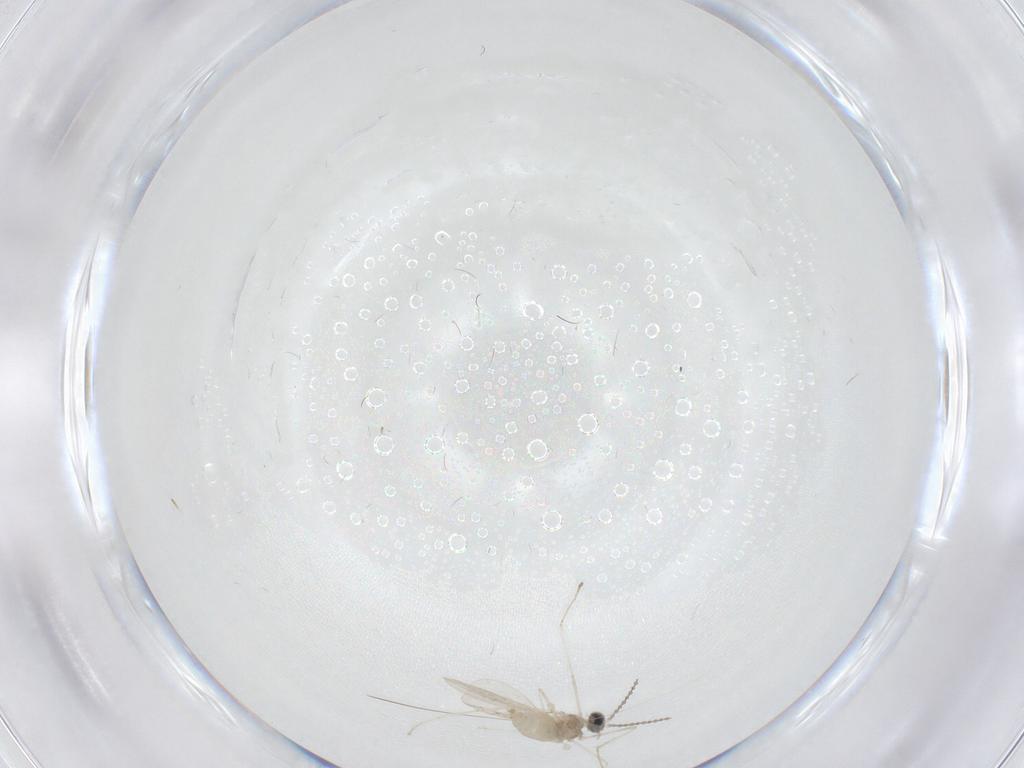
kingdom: Animalia
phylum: Arthropoda
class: Insecta
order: Diptera
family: Cecidomyiidae
